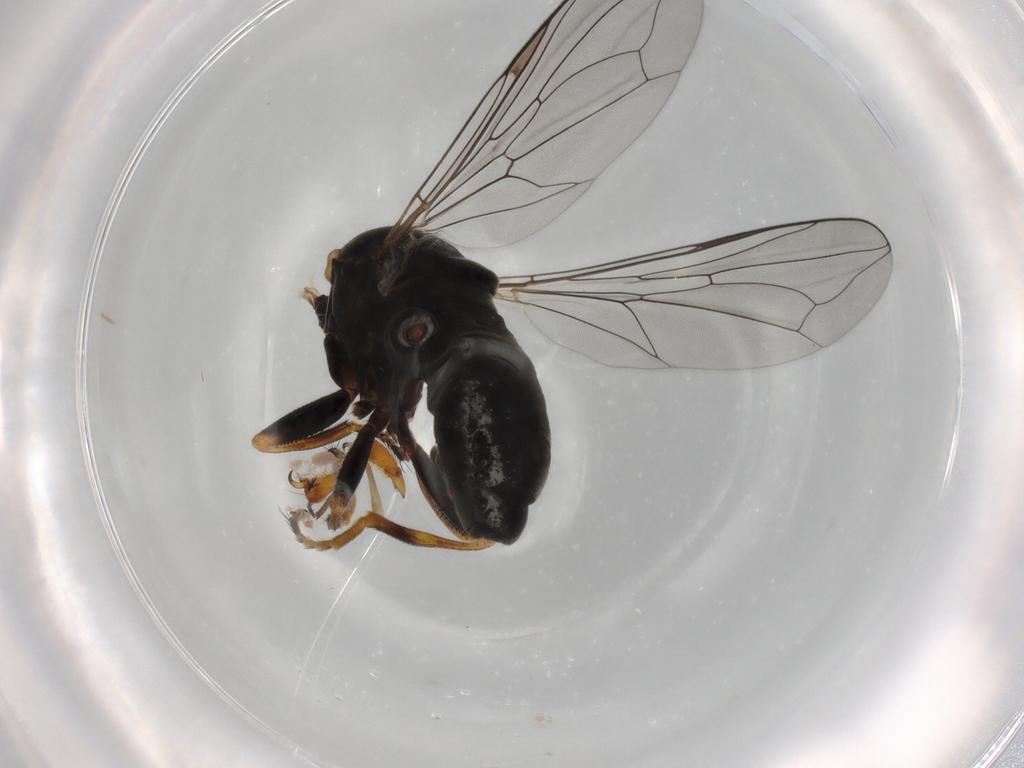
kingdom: Animalia
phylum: Arthropoda
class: Insecta
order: Diptera
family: Pipunculidae
